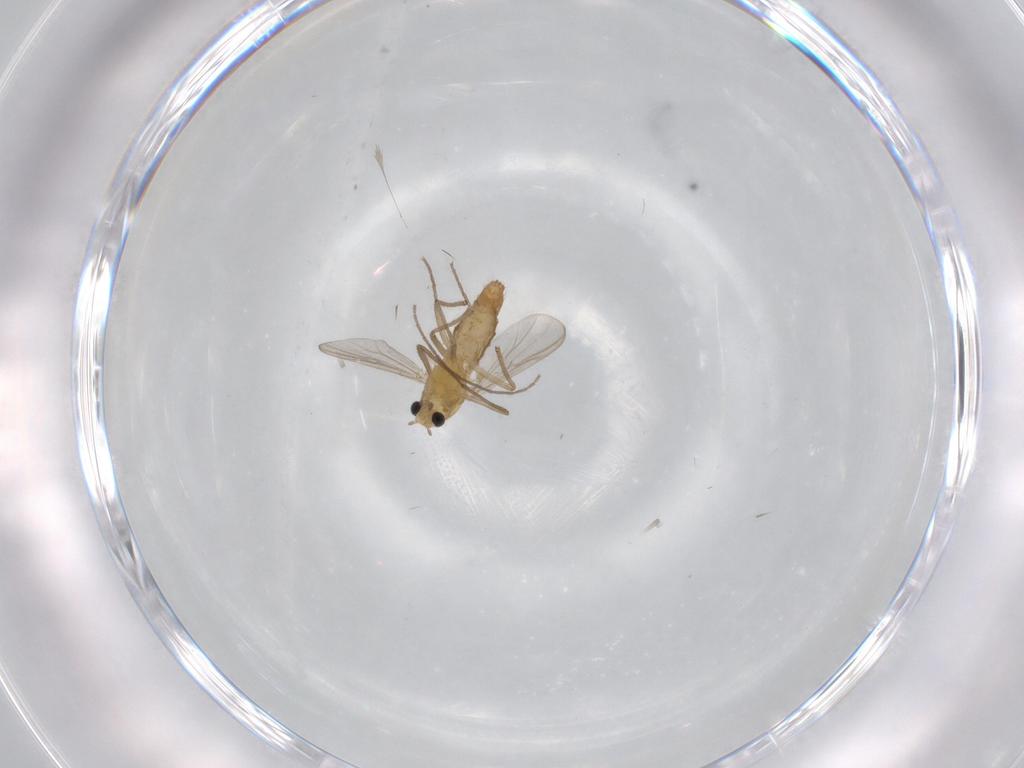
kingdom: Animalia
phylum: Arthropoda
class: Insecta
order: Diptera
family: Chironomidae
